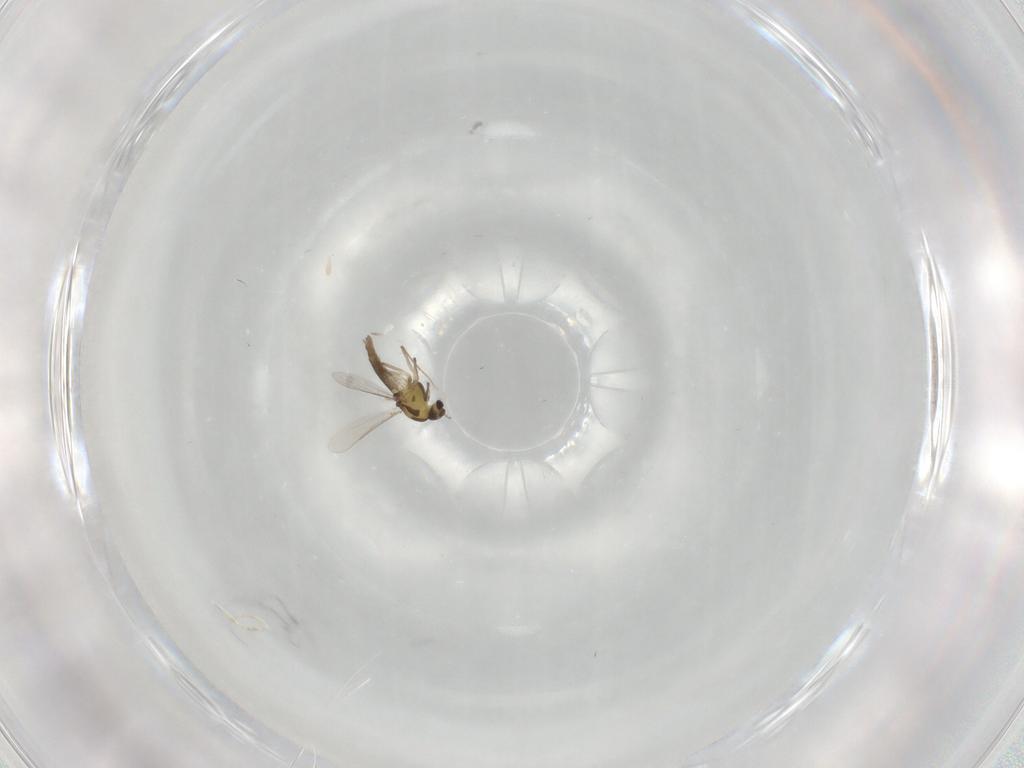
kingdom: Animalia
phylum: Arthropoda
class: Insecta
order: Diptera
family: Chironomidae
